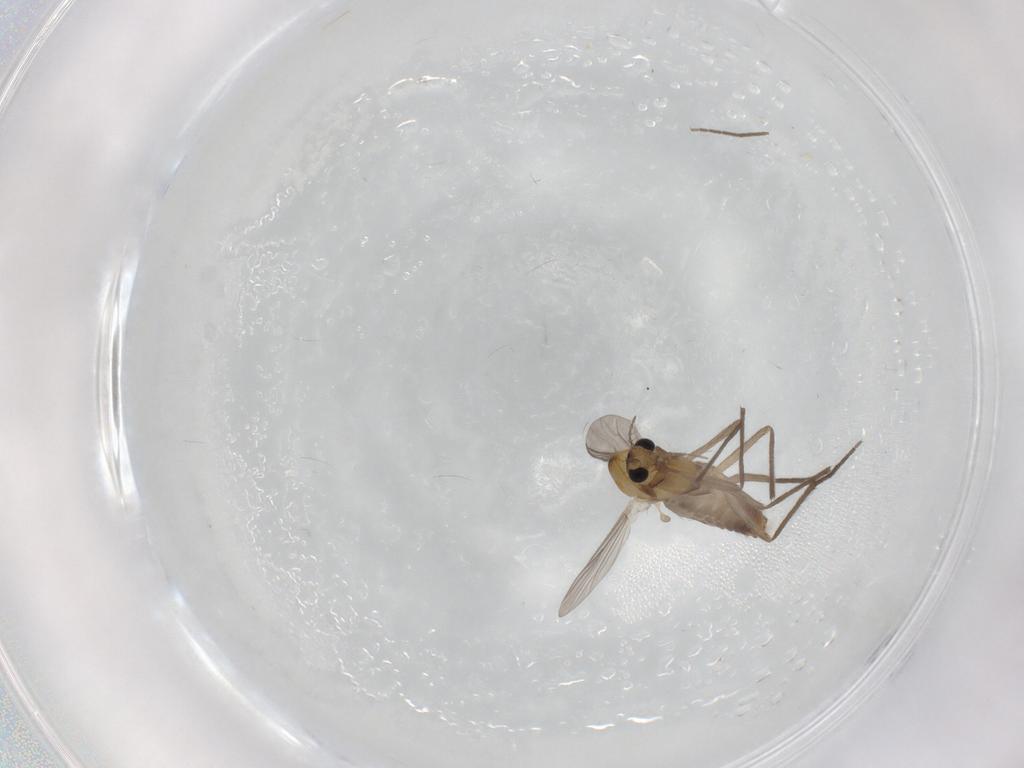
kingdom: Animalia
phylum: Arthropoda
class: Insecta
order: Diptera
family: Chironomidae
